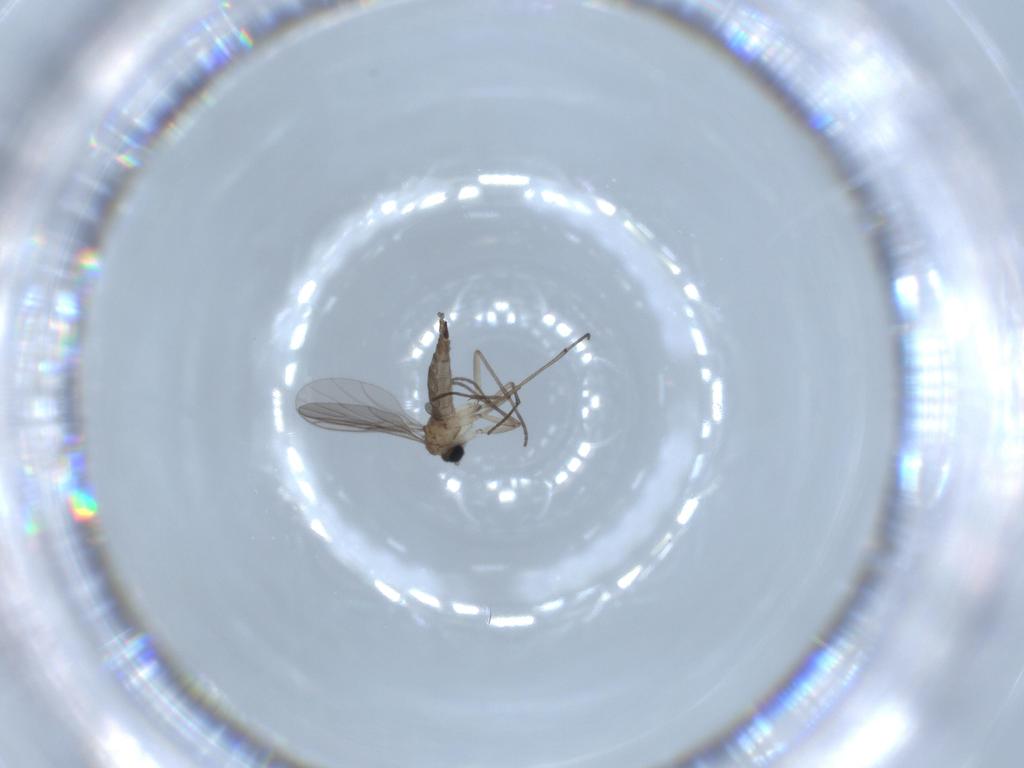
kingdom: Animalia
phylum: Arthropoda
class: Insecta
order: Diptera
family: Sciaridae
